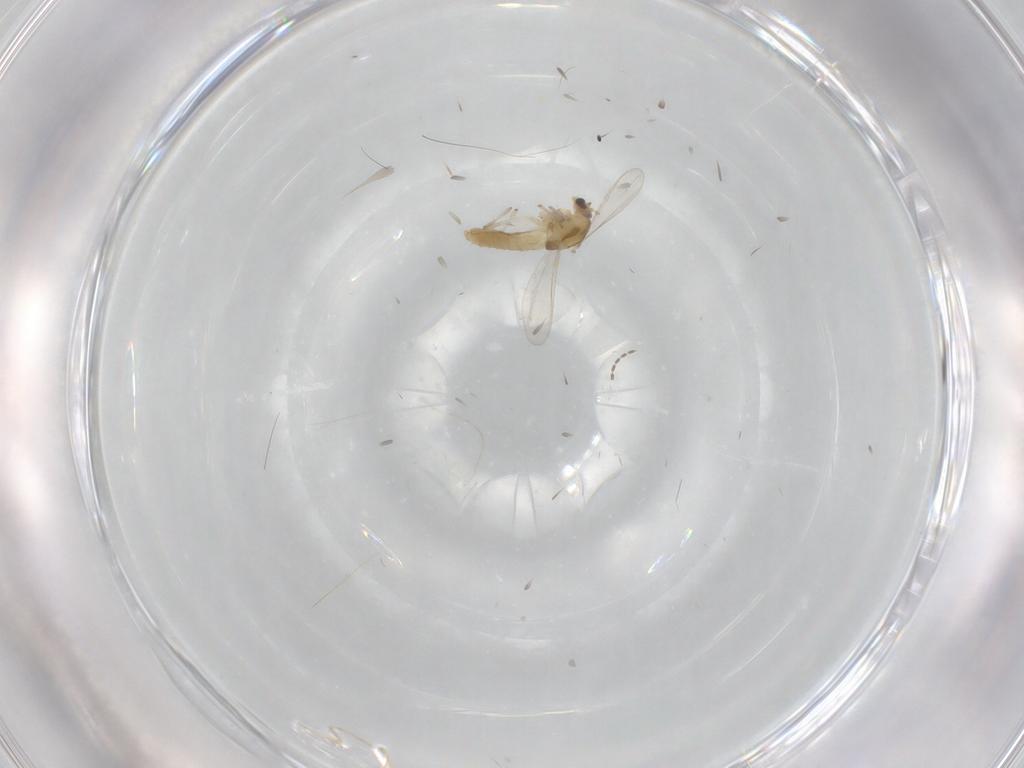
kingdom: Animalia
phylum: Arthropoda
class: Insecta
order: Diptera
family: Chironomidae
